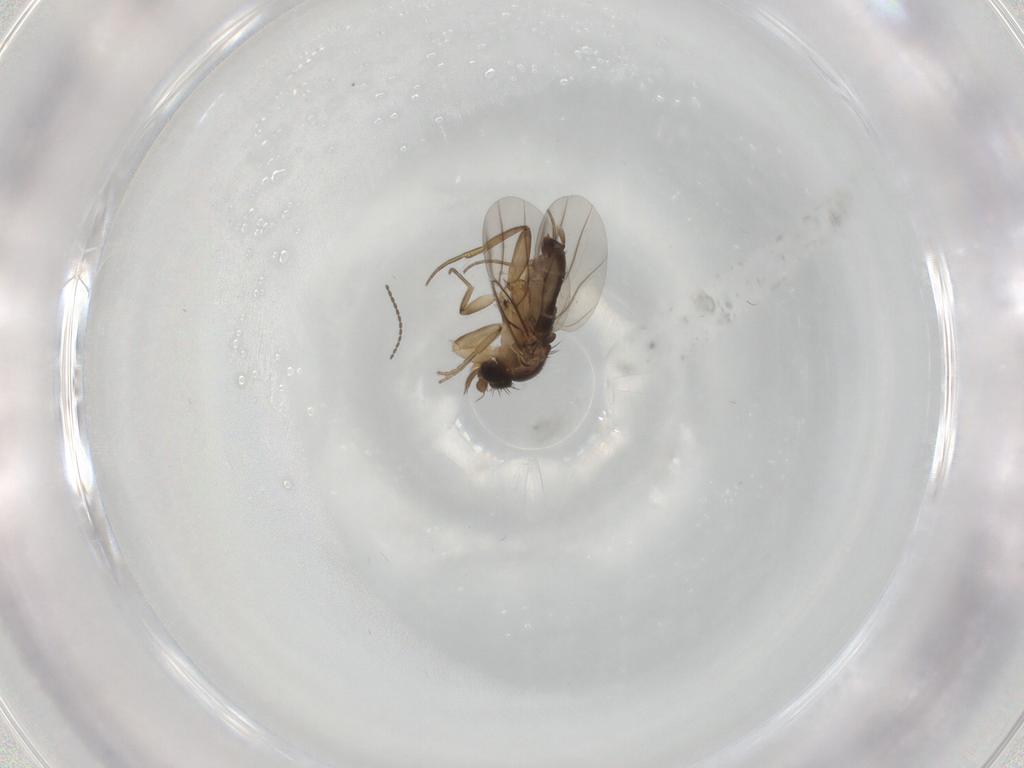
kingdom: Animalia
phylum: Arthropoda
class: Insecta
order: Diptera
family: Phoridae
